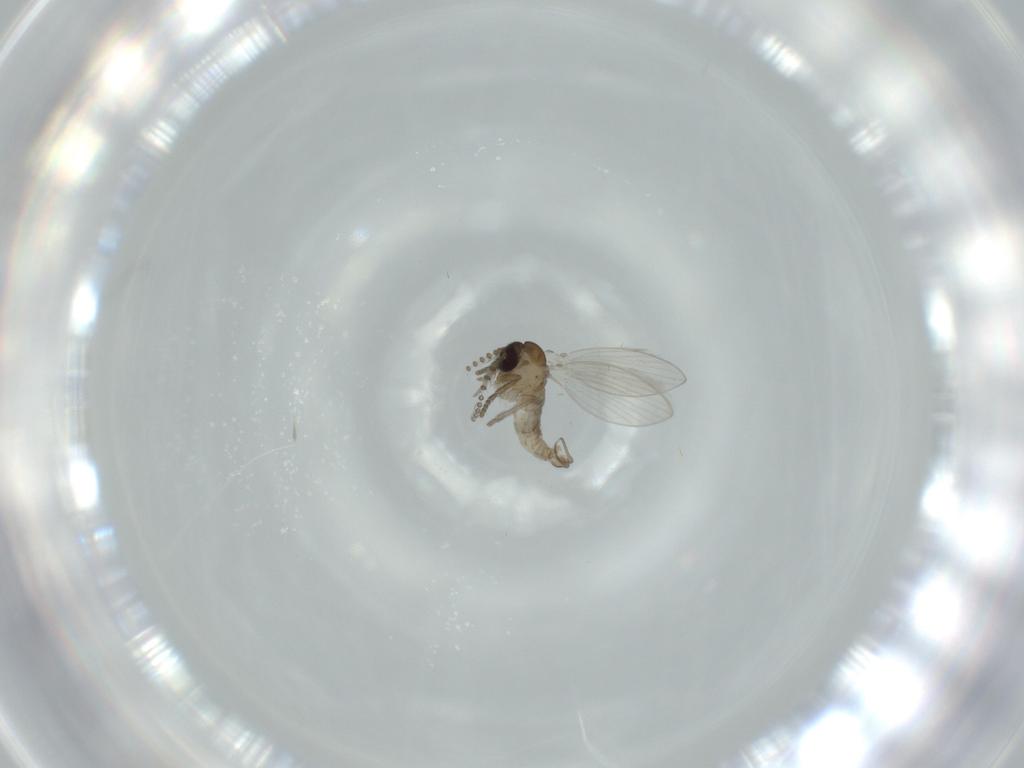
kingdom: Animalia
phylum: Arthropoda
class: Insecta
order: Diptera
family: Psychodidae
